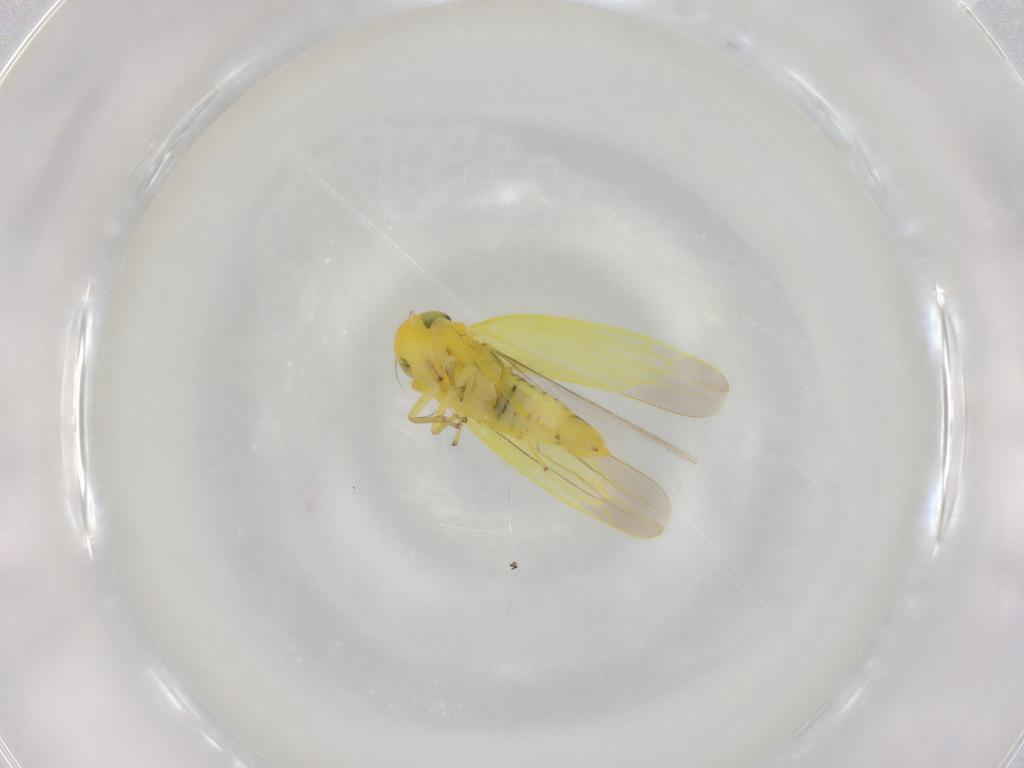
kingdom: Animalia
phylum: Arthropoda
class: Insecta
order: Hemiptera
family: Cicadellidae
